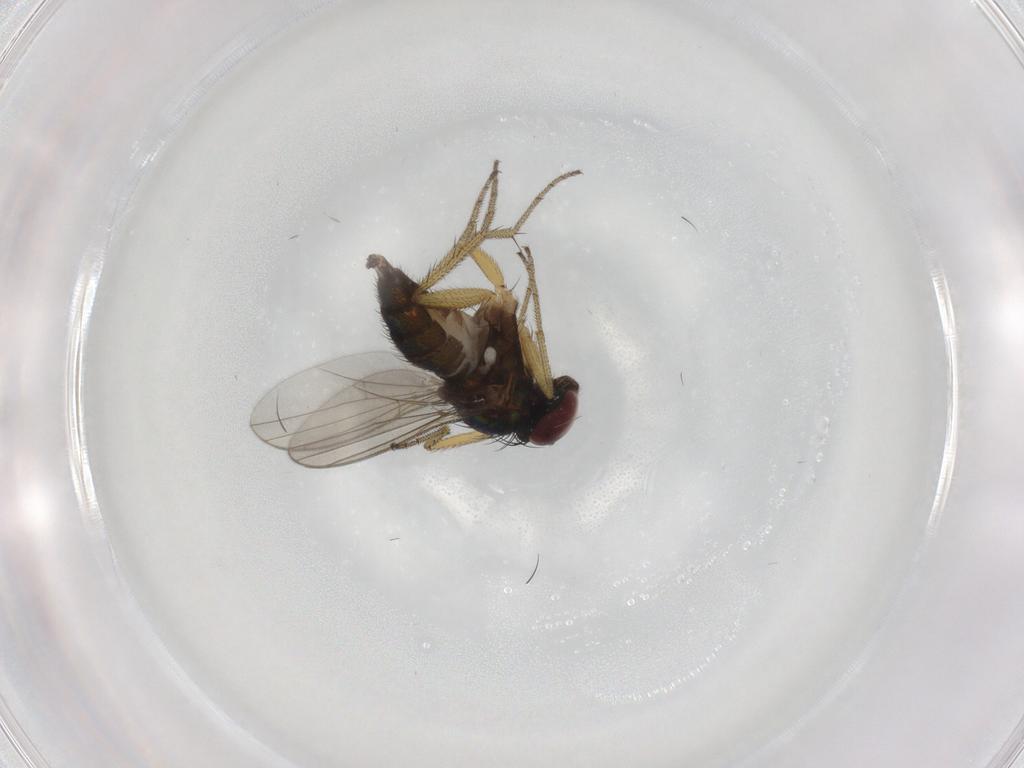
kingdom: Animalia
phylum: Arthropoda
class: Insecta
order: Diptera
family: Dolichopodidae
